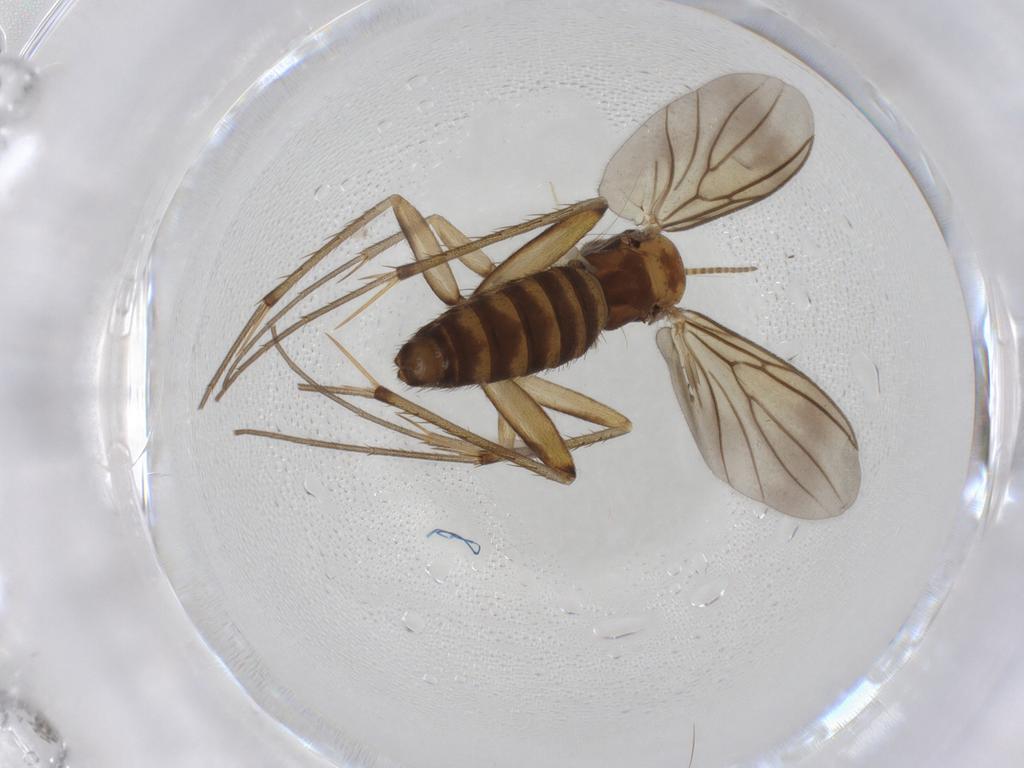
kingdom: Animalia
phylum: Arthropoda
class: Insecta
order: Diptera
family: Mycetophilidae
